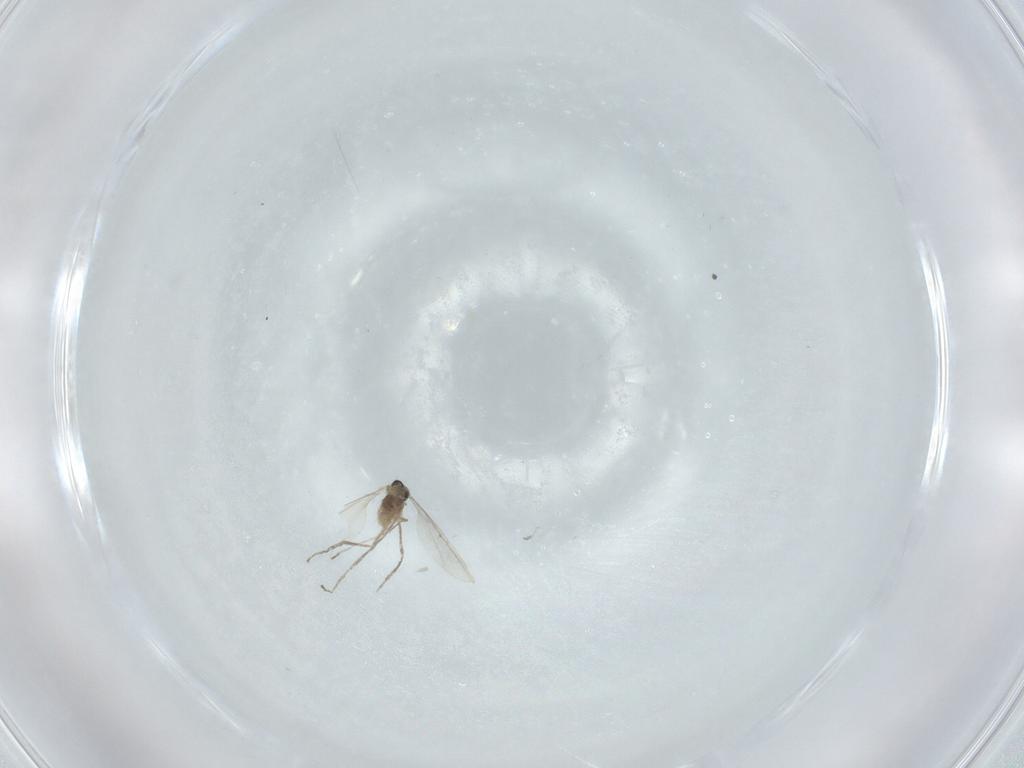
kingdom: Animalia
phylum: Arthropoda
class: Insecta
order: Diptera
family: Cecidomyiidae
